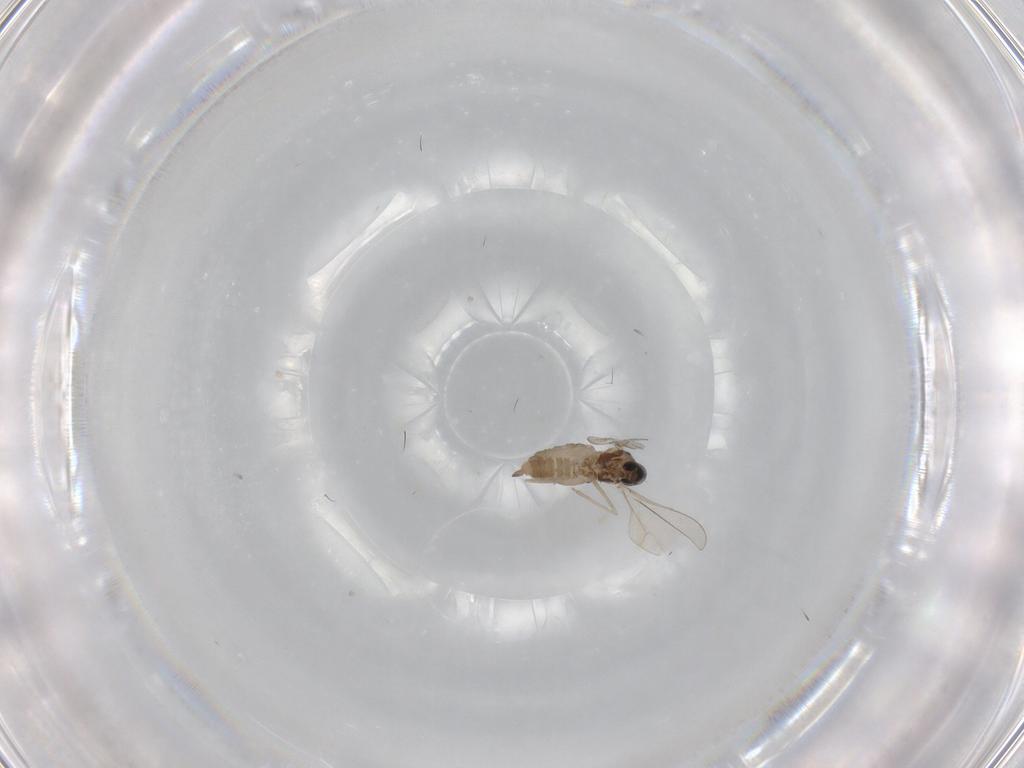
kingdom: Animalia
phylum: Arthropoda
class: Insecta
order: Diptera
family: Cecidomyiidae
